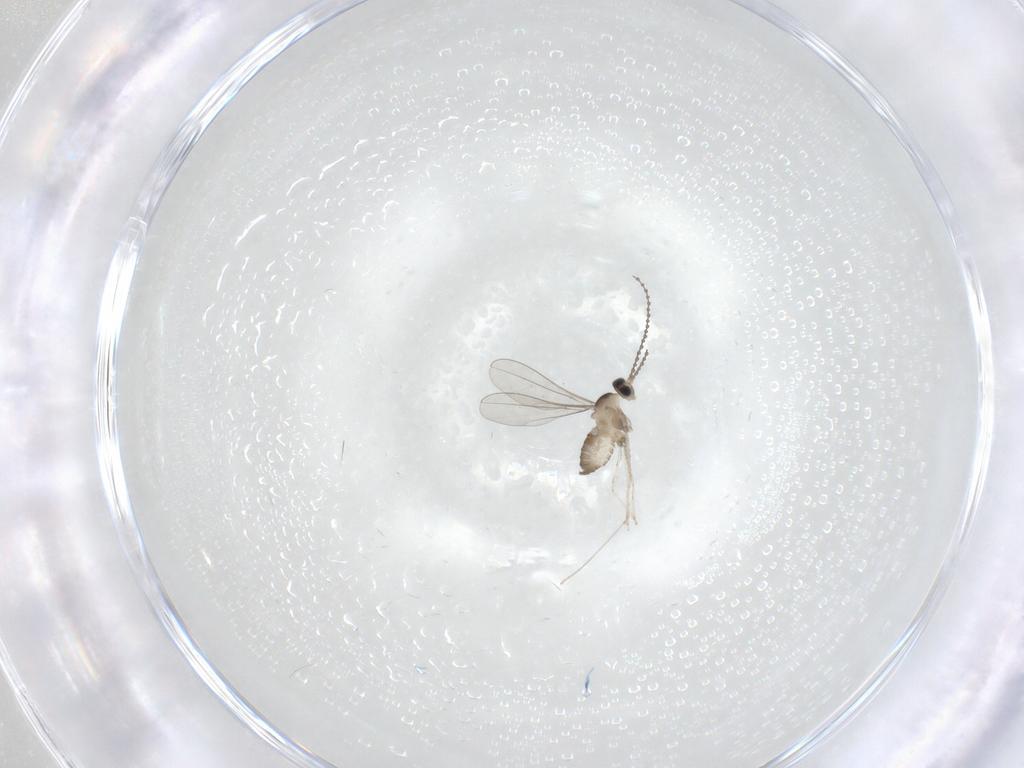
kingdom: Animalia
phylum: Arthropoda
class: Insecta
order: Diptera
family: Cecidomyiidae
